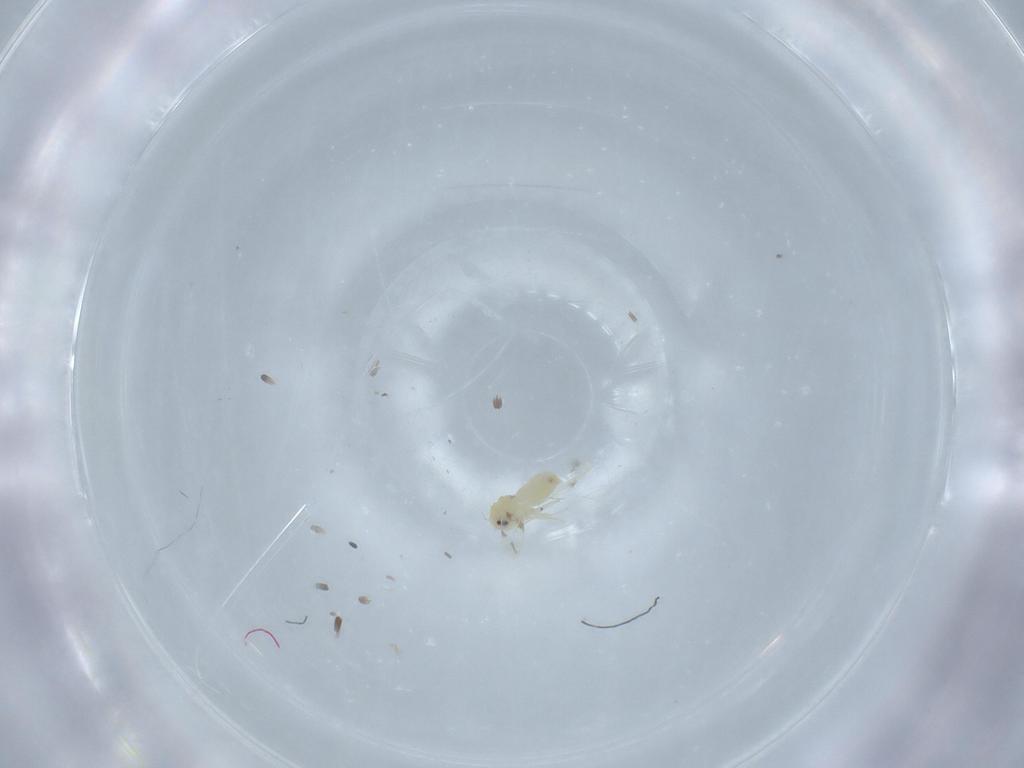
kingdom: Animalia
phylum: Arthropoda
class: Insecta
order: Hemiptera
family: Aleyrodidae
